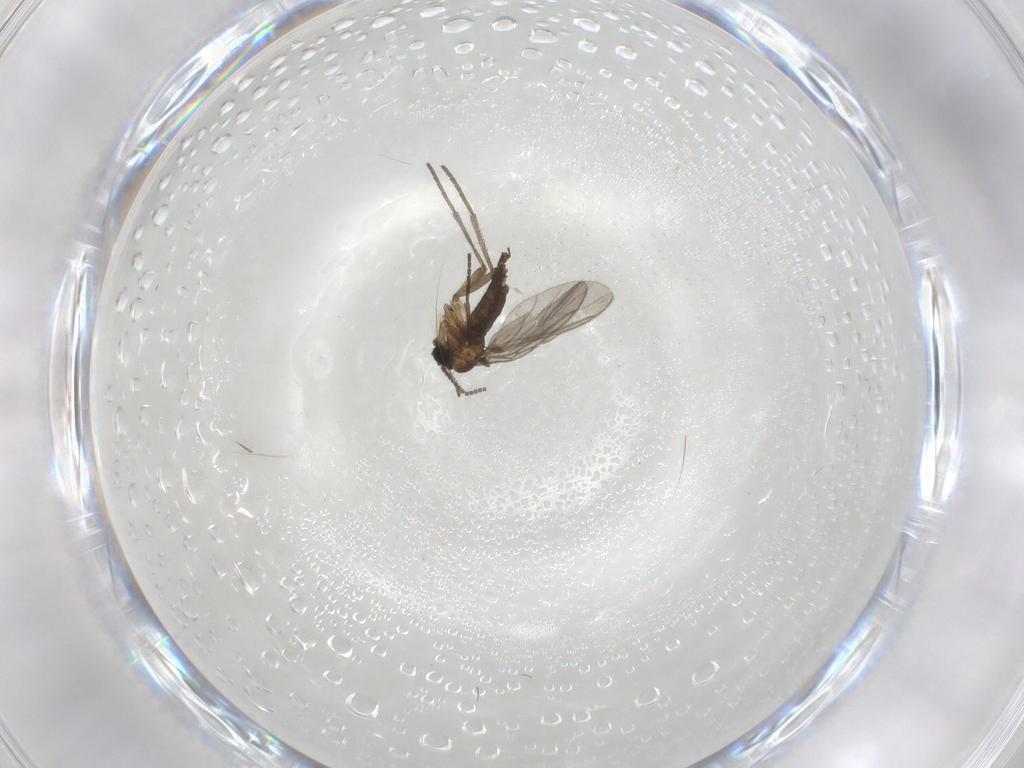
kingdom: Animalia
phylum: Arthropoda
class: Insecta
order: Diptera
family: Sciaridae
